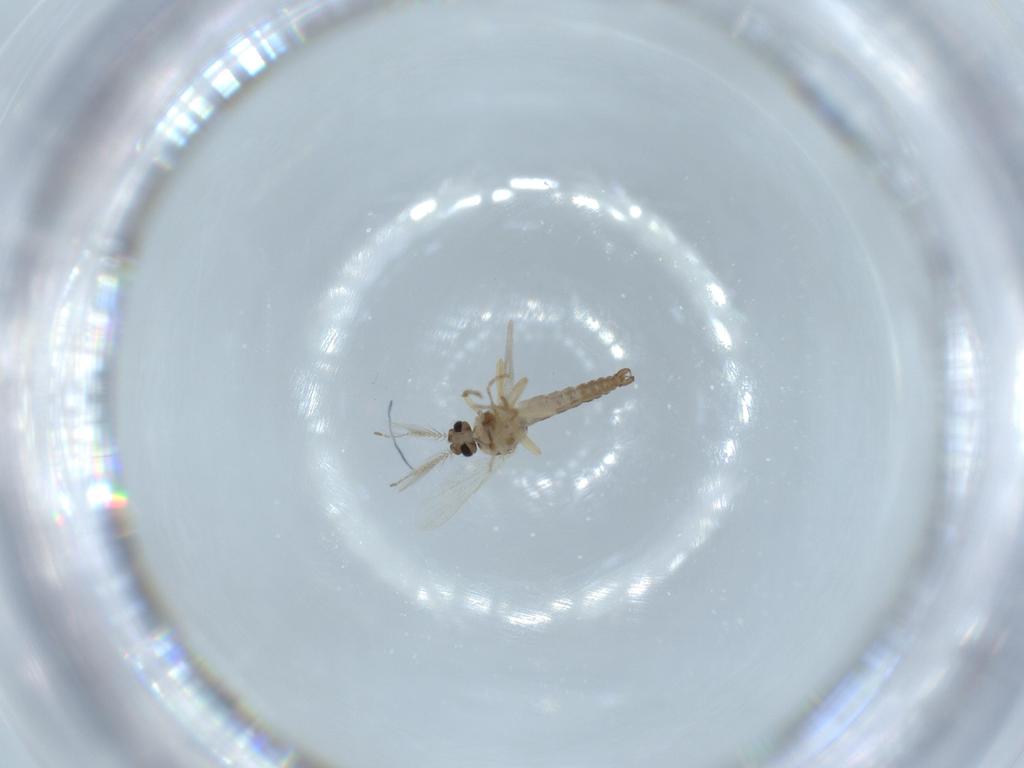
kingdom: Animalia
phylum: Arthropoda
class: Insecta
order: Diptera
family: Ceratopogonidae
